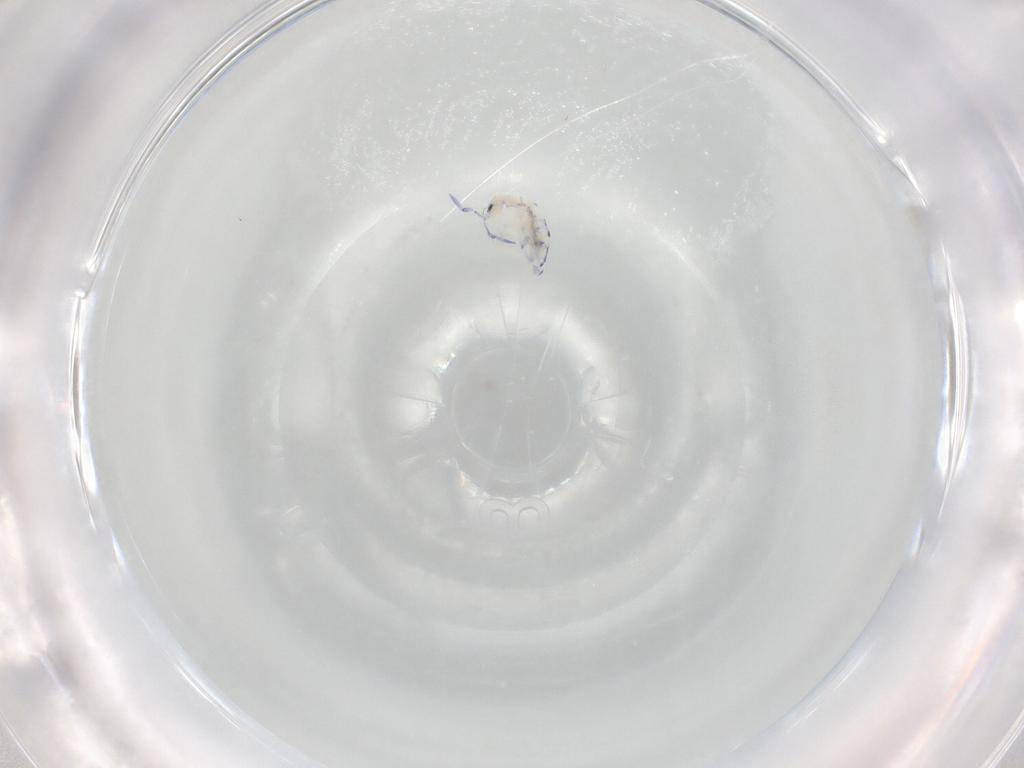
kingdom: Animalia
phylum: Arthropoda
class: Collembola
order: Entomobryomorpha
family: Entomobryidae
